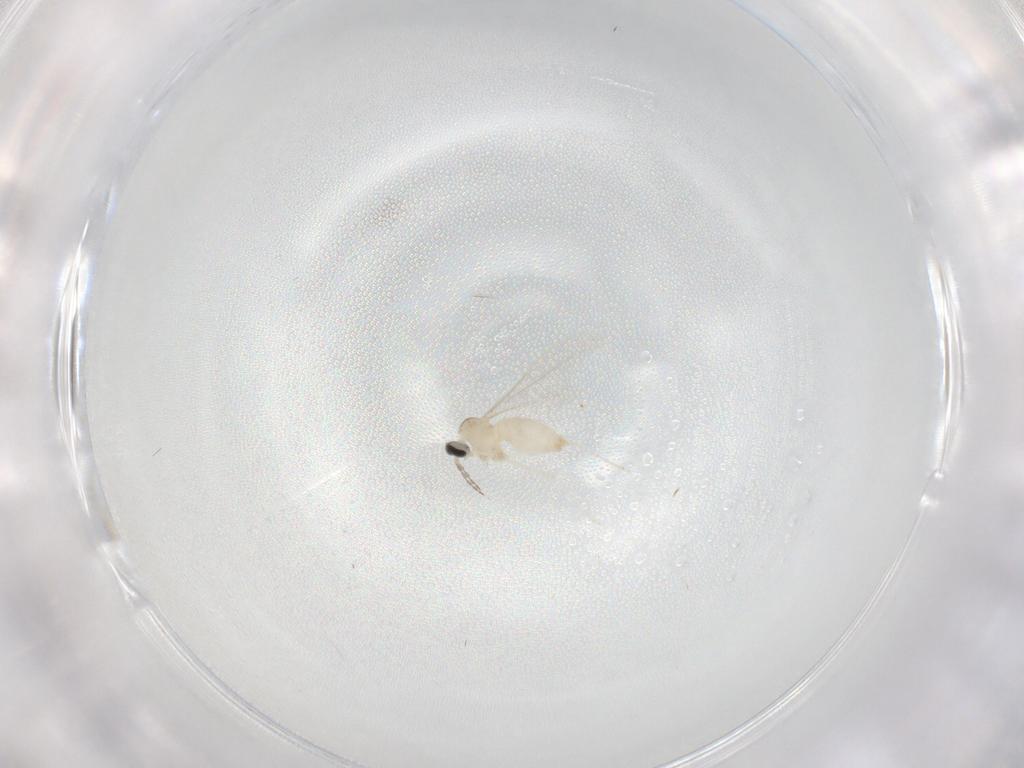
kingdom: Animalia
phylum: Arthropoda
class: Insecta
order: Diptera
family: Cecidomyiidae
